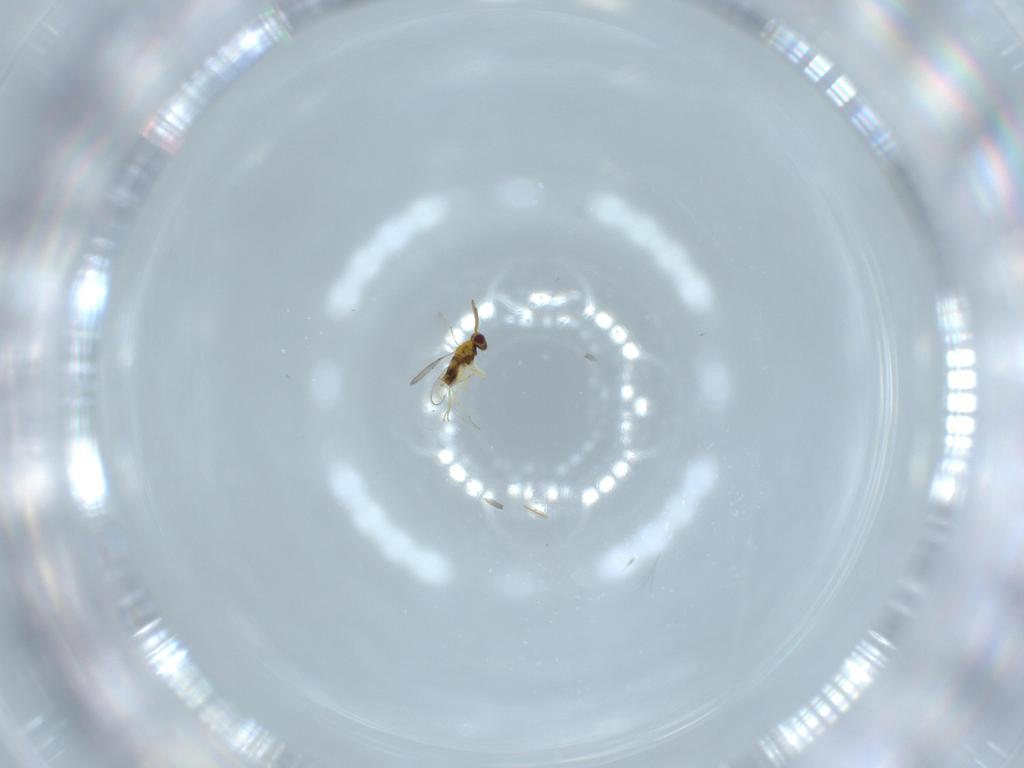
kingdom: Animalia
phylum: Arthropoda
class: Insecta
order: Hymenoptera
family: Aphelinidae
